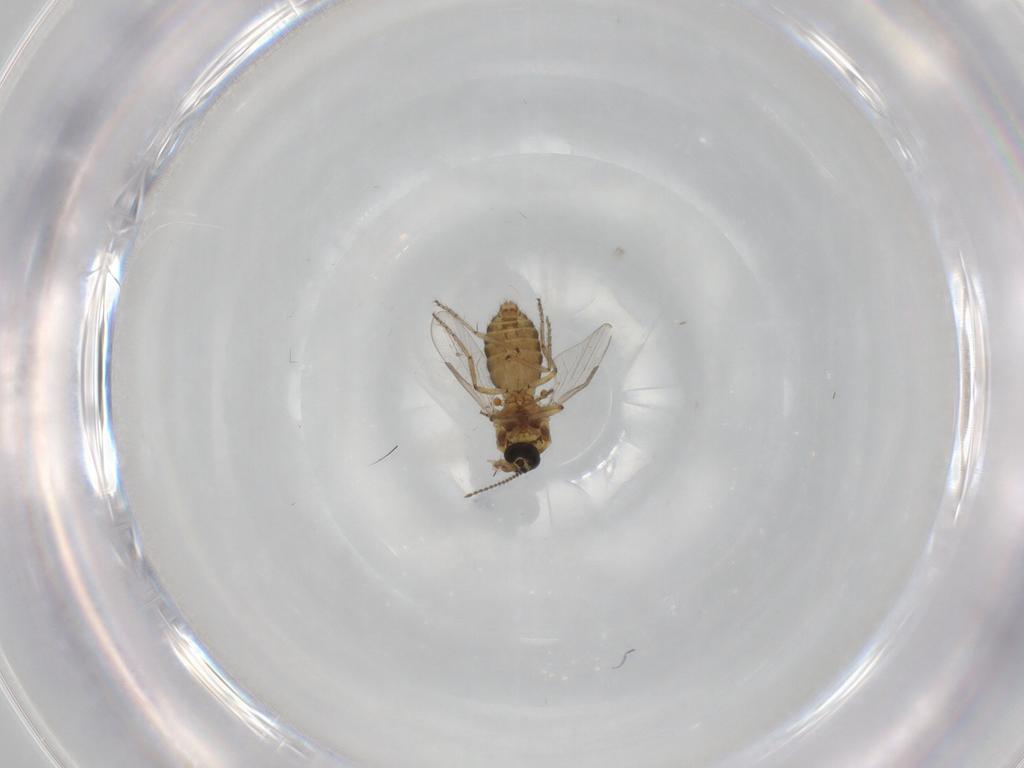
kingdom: Animalia
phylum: Arthropoda
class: Insecta
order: Diptera
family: Ceratopogonidae
